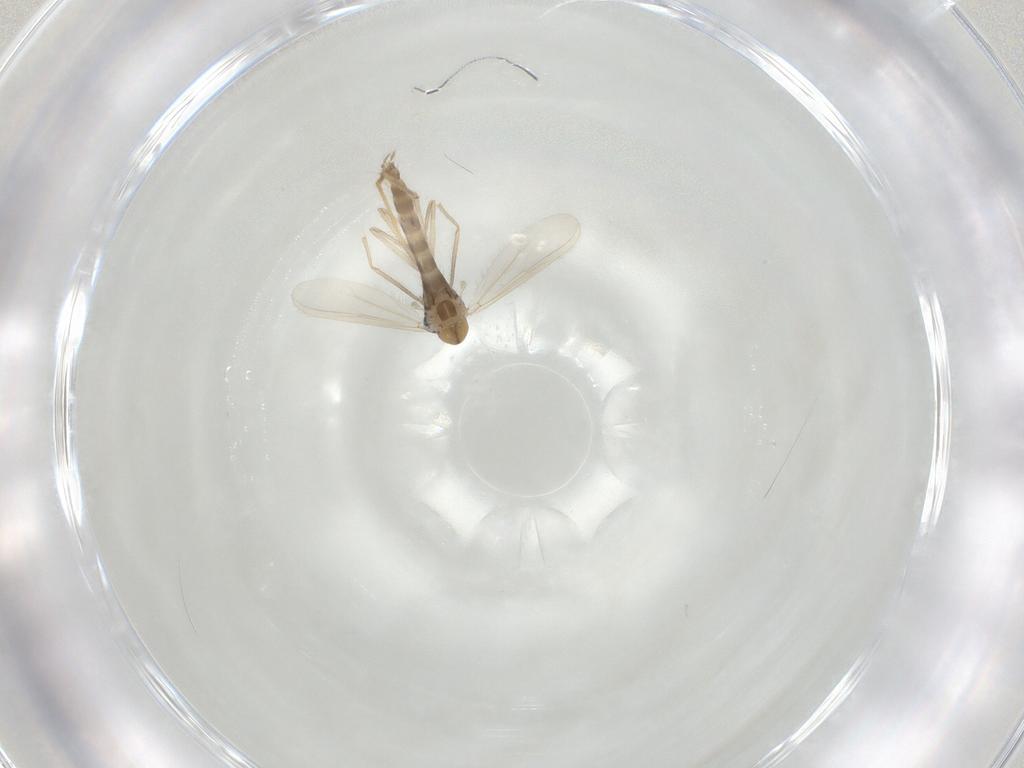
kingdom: Animalia
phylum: Arthropoda
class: Insecta
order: Diptera
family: Chironomidae
